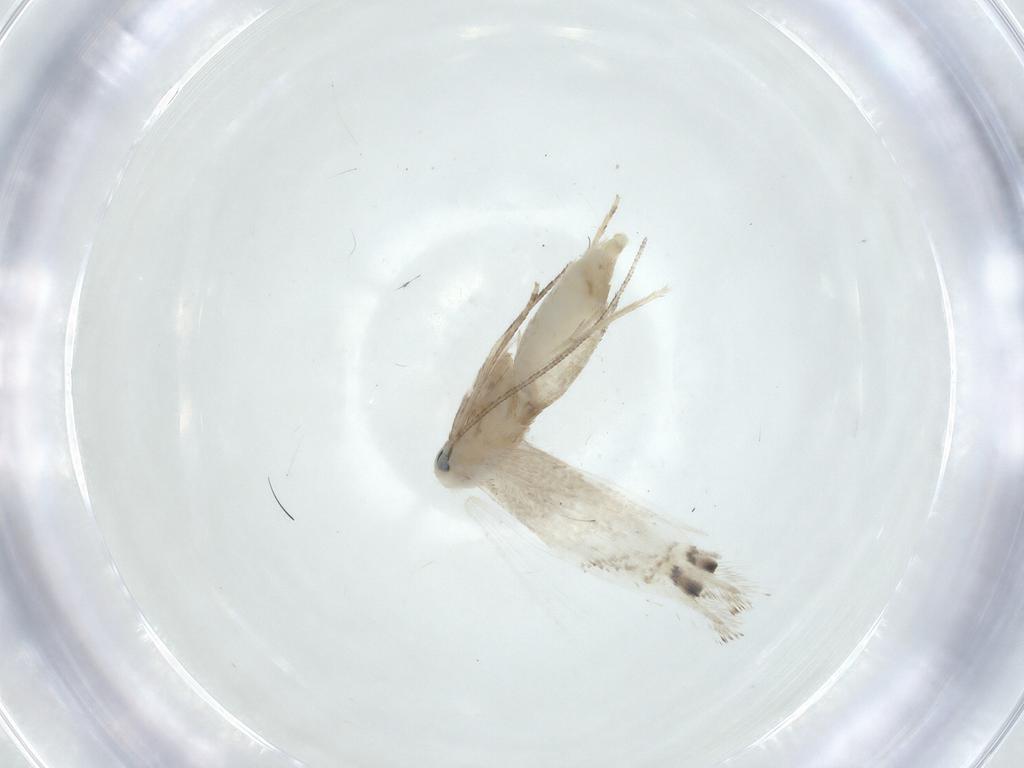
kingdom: Animalia
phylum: Arthropoda
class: Insecta
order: Lepidoptera
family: Lyonetiidae
